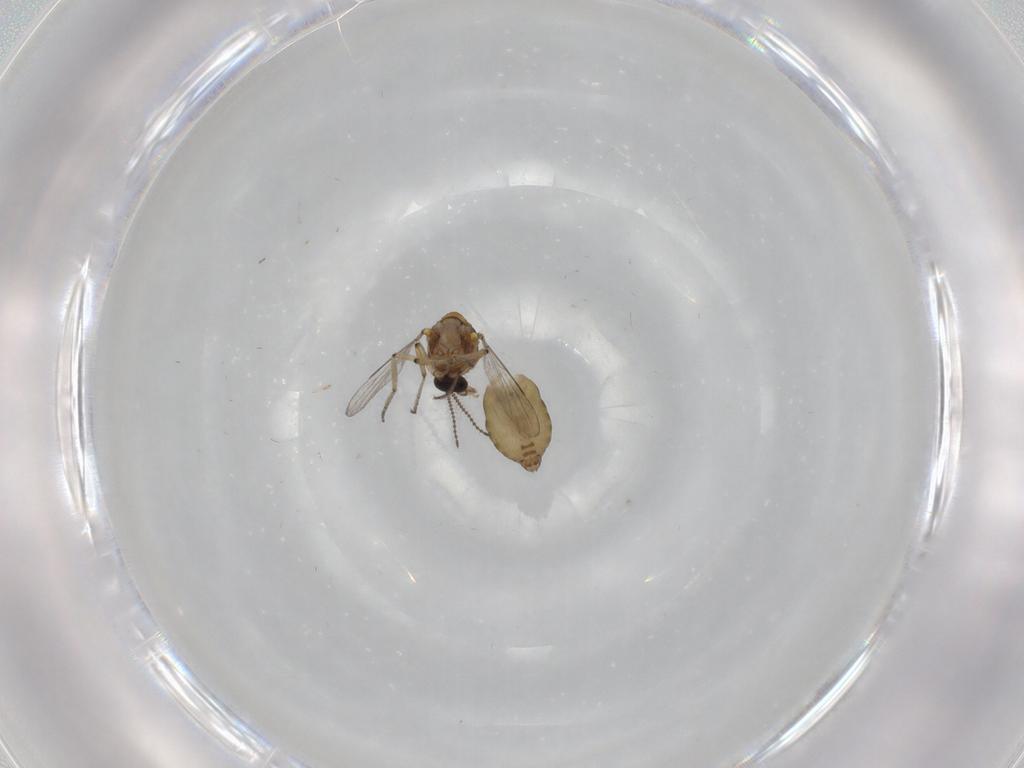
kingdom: Animalia
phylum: Arthropoda
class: Insecta
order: Diptera
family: Ceratopogonidae
